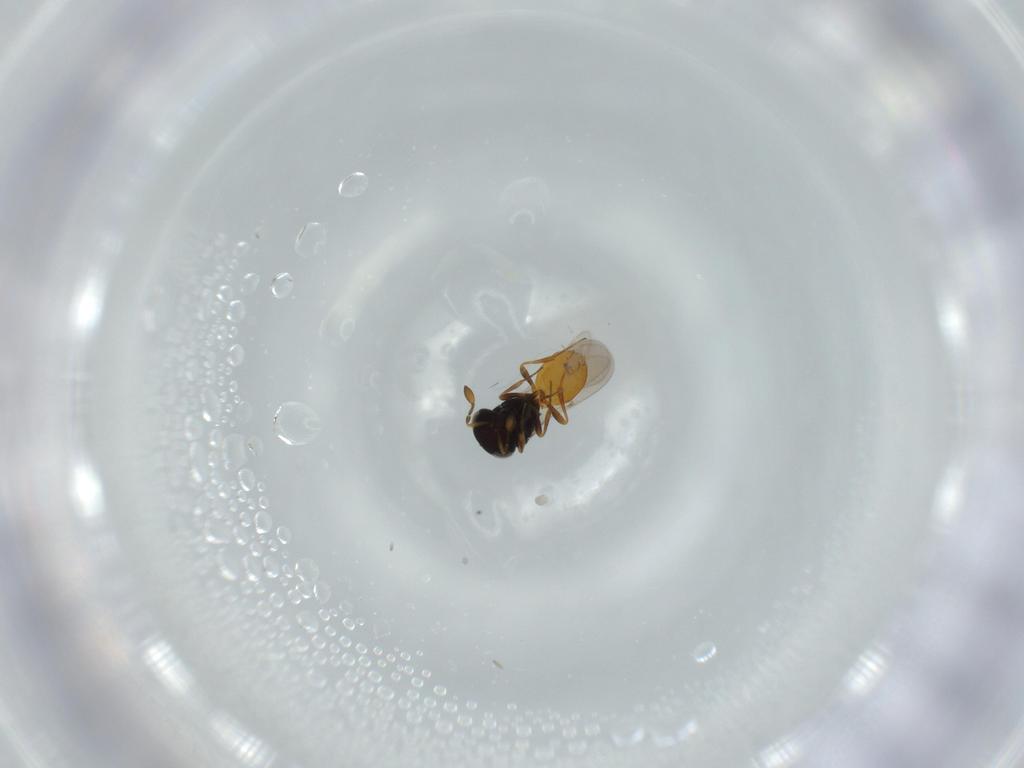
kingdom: Animalia
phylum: Arthropoda
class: Insecta
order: Hymenoptera
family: Scelionidae
